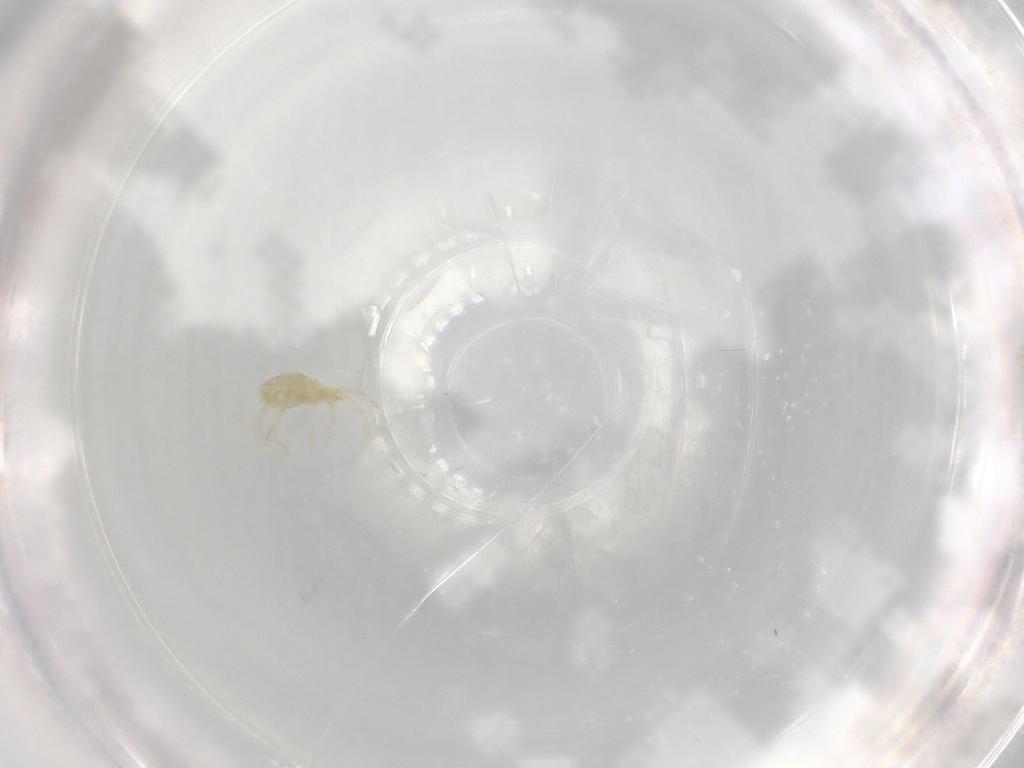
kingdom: Animalia
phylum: Arthropoda
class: Arachnida
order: Trombidiformes
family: Erythraeidae
